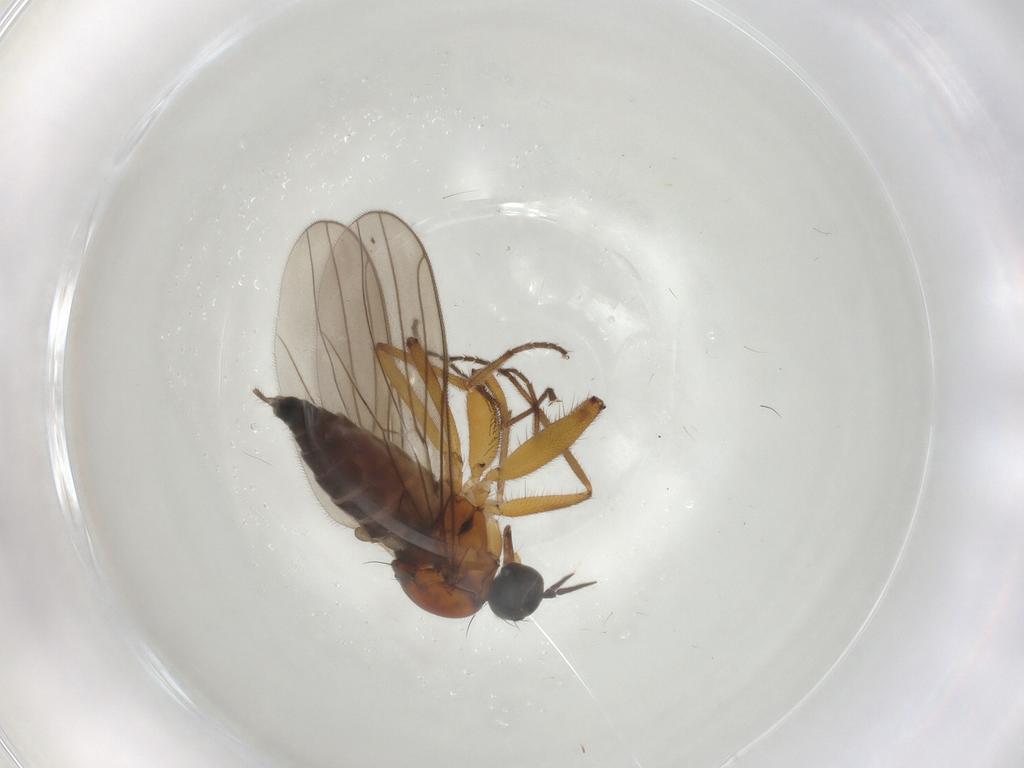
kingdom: Animalia
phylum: Arthropoda
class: Insecta
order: Diptera
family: Hybotidae
